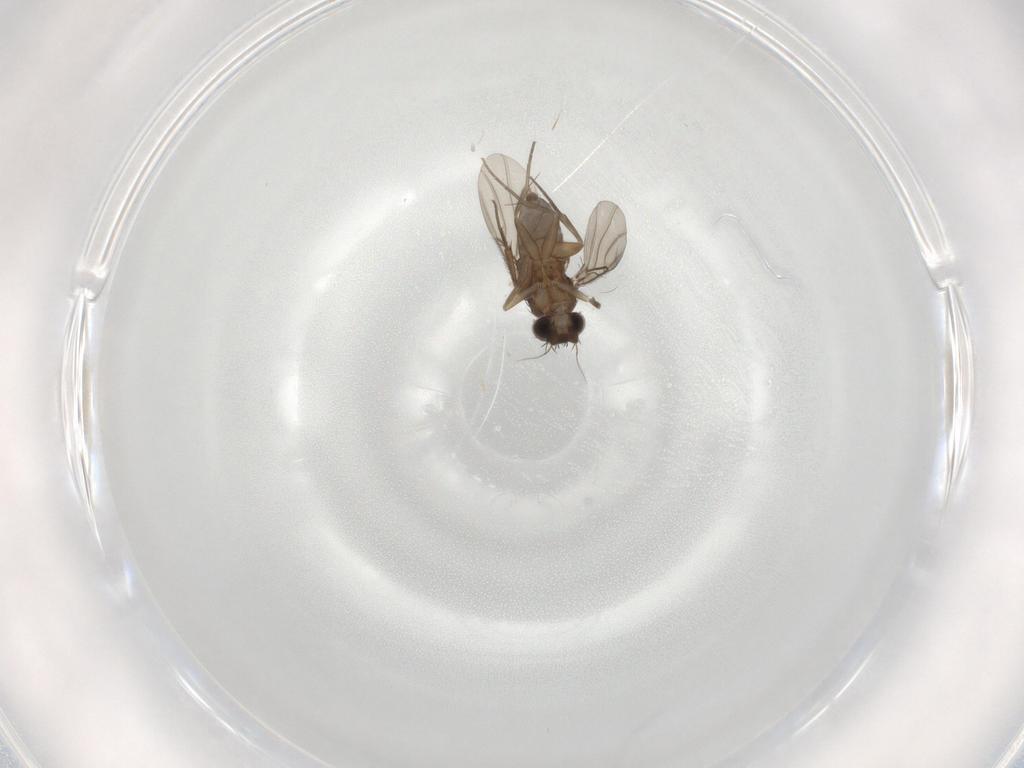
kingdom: Animalia
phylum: Arthropoda
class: Insecta
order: Diptera
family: Phoridae
